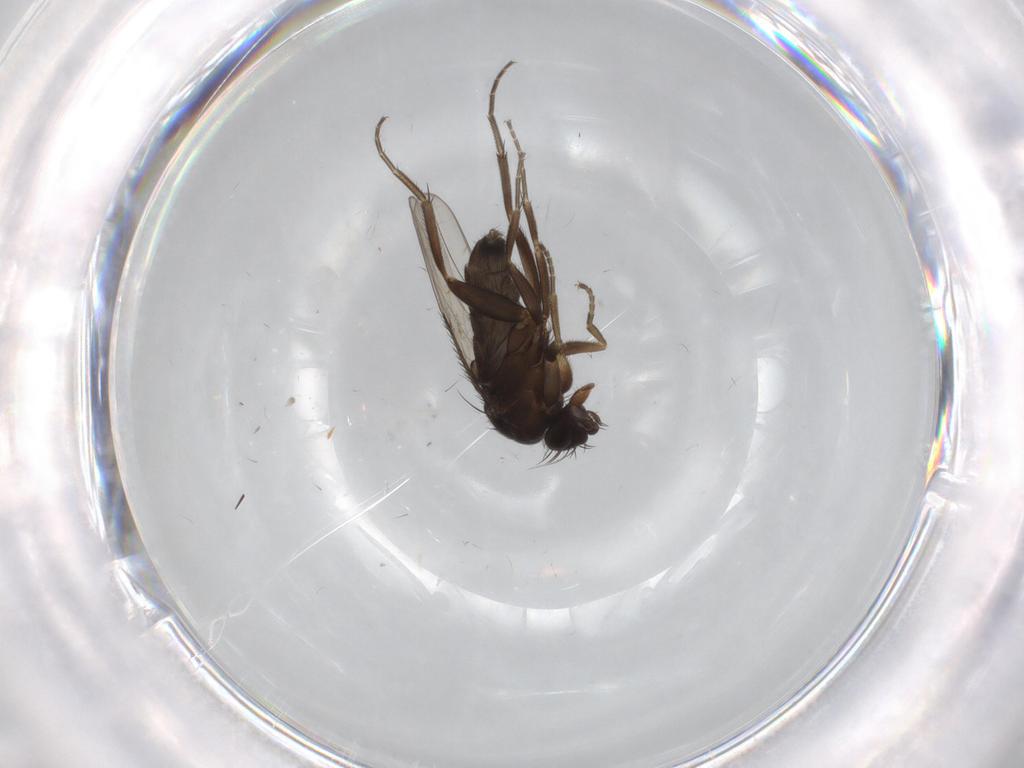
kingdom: Animalia
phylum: Arthropoda
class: Insecta
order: Diptera
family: Phoridae
